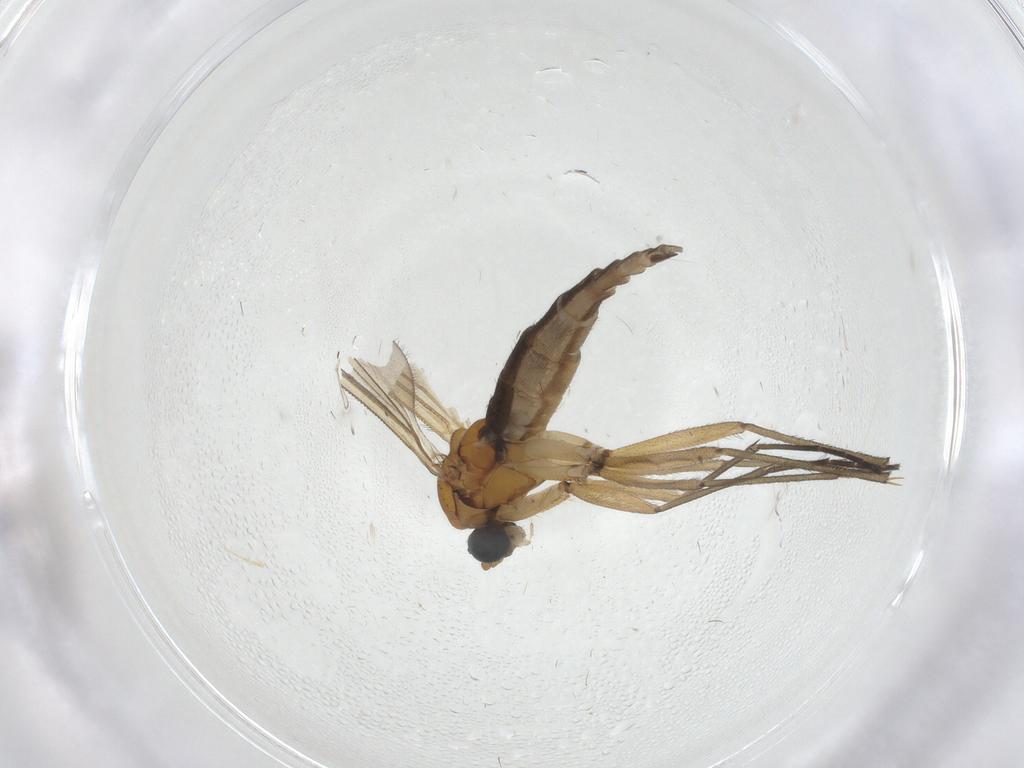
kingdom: Animalia
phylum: Arthropoda
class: Insecta
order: Diptera
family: Sciaridae
